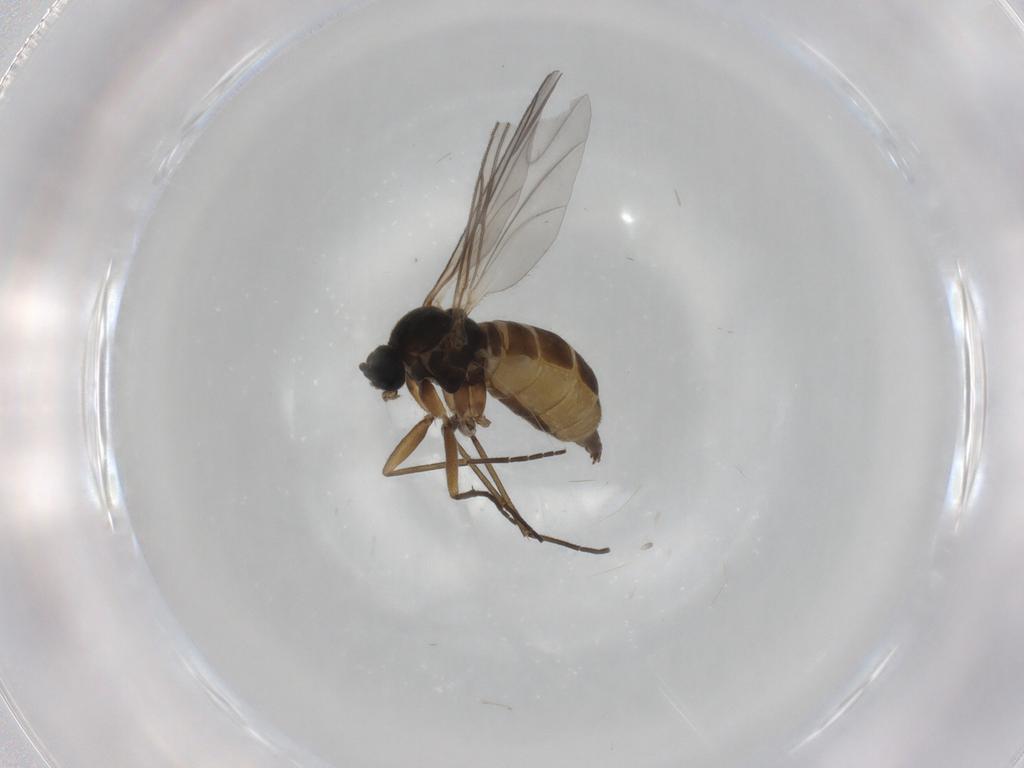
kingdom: Animalia
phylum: Arthropoda
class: Insecta
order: Diptera
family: Sciaridae
